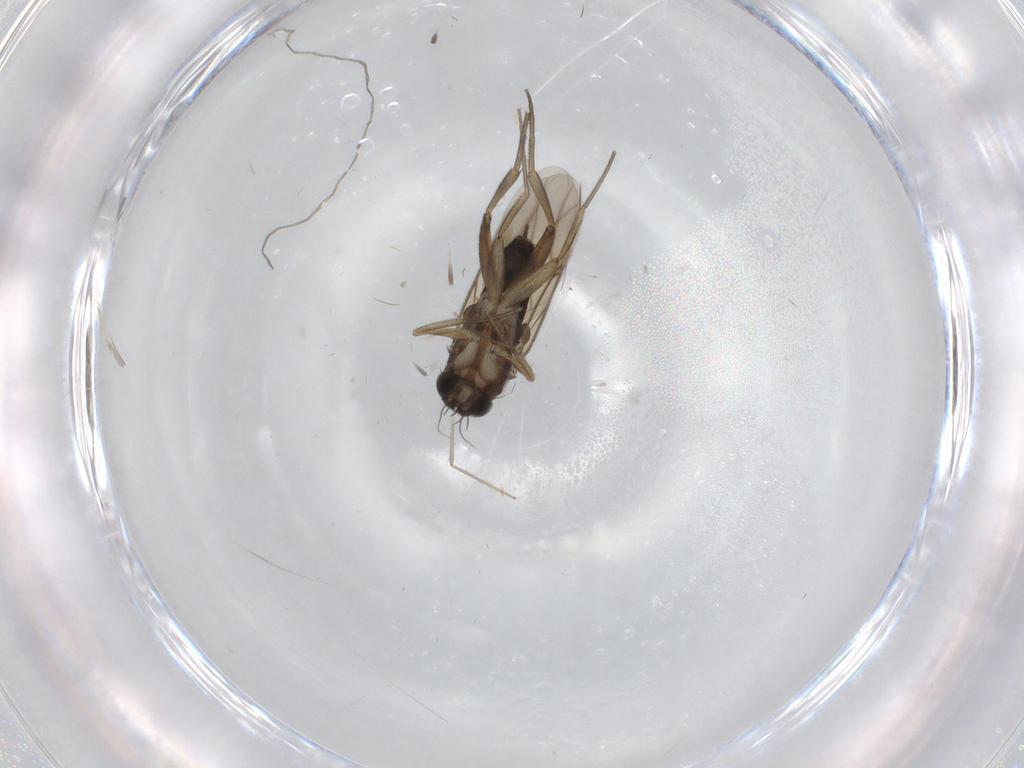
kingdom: Animalia
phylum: Arthropoda
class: Insecta
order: Diptera
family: Phoridae
